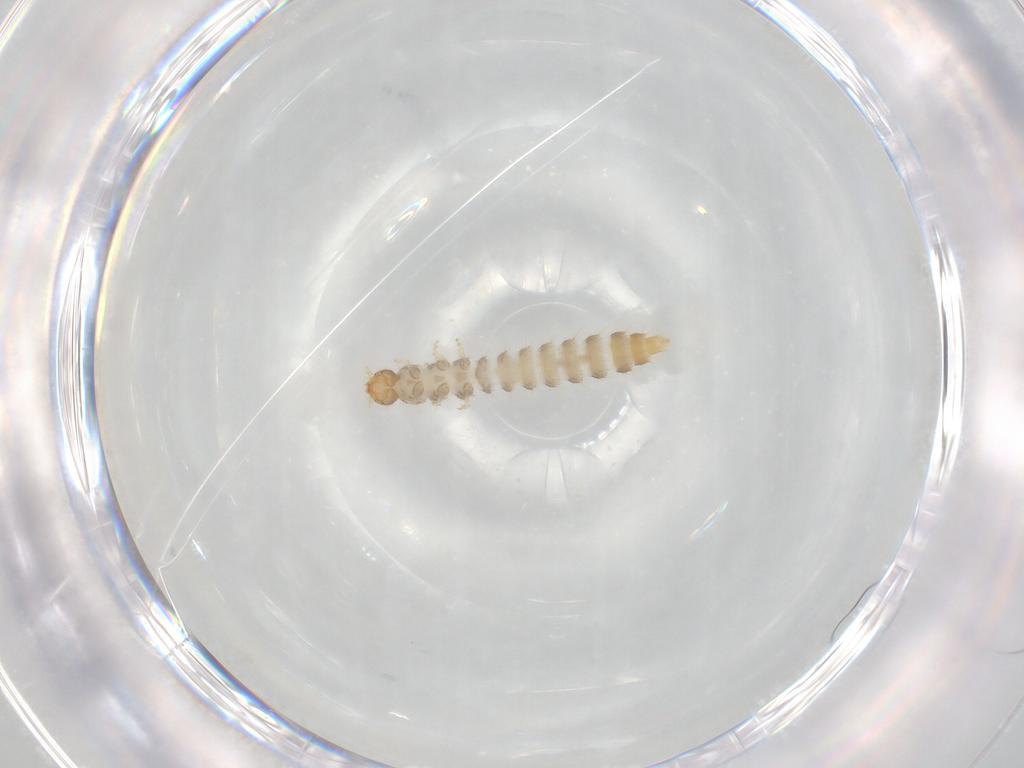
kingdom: Animalia
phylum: Arthropoda
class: Insecta
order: Coleoptera
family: Staphylinidae
